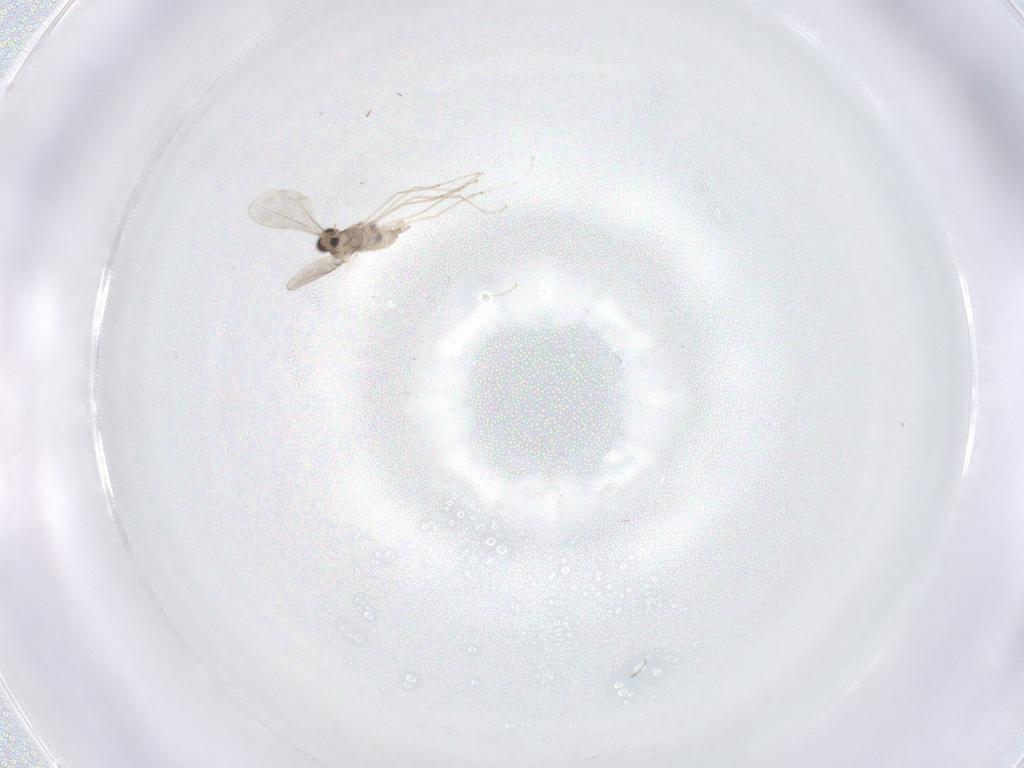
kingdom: Animalia
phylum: Arthropoda
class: Insecta
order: Diptera
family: Cecidomyiidae
